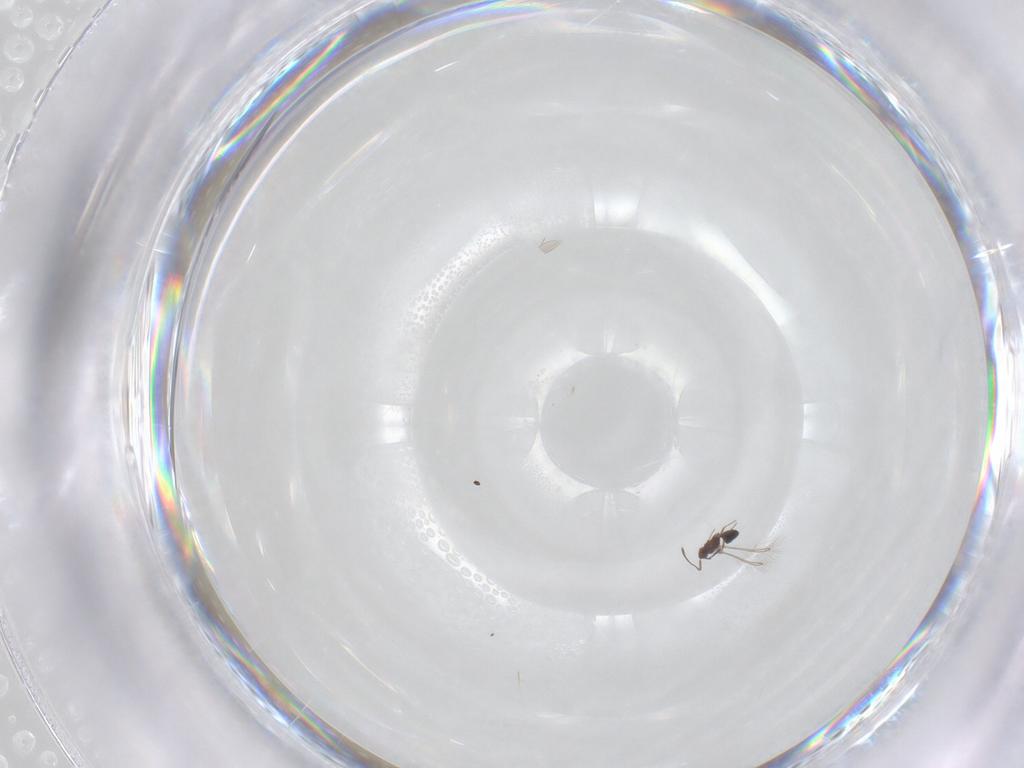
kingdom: Animalia
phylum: Arthropoda
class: Insecta
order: Hymenoptera
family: Mymaridae
